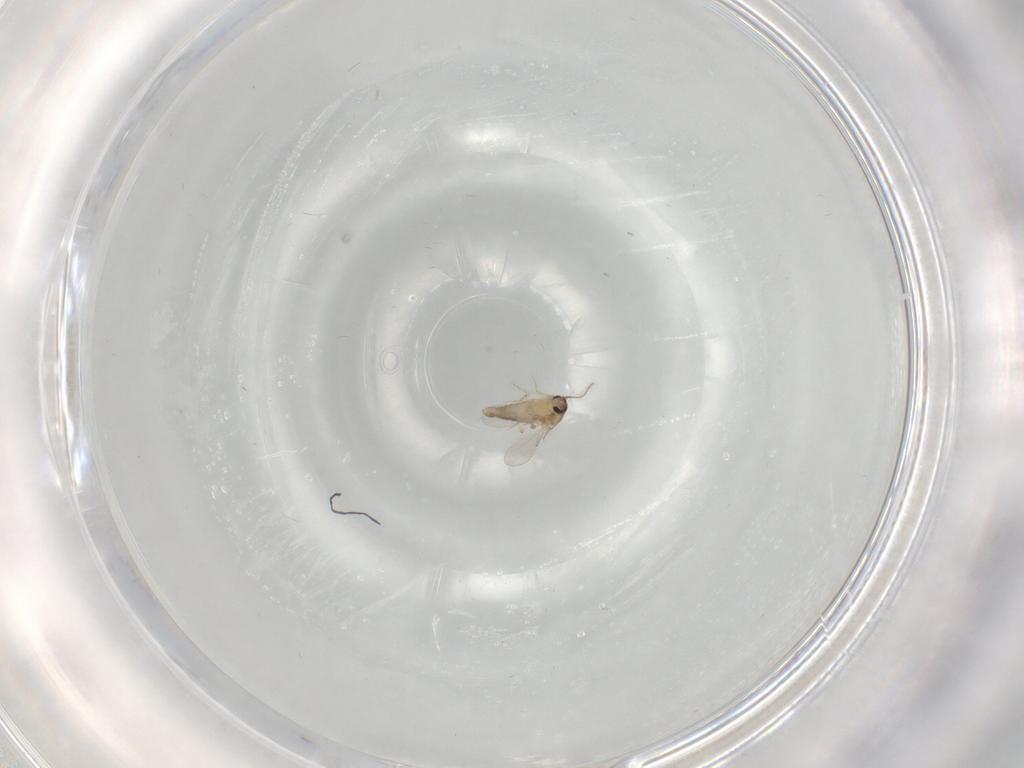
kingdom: Animalia
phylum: Arthropoda
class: Insecta
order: Diptera
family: Ceratopogonidae
